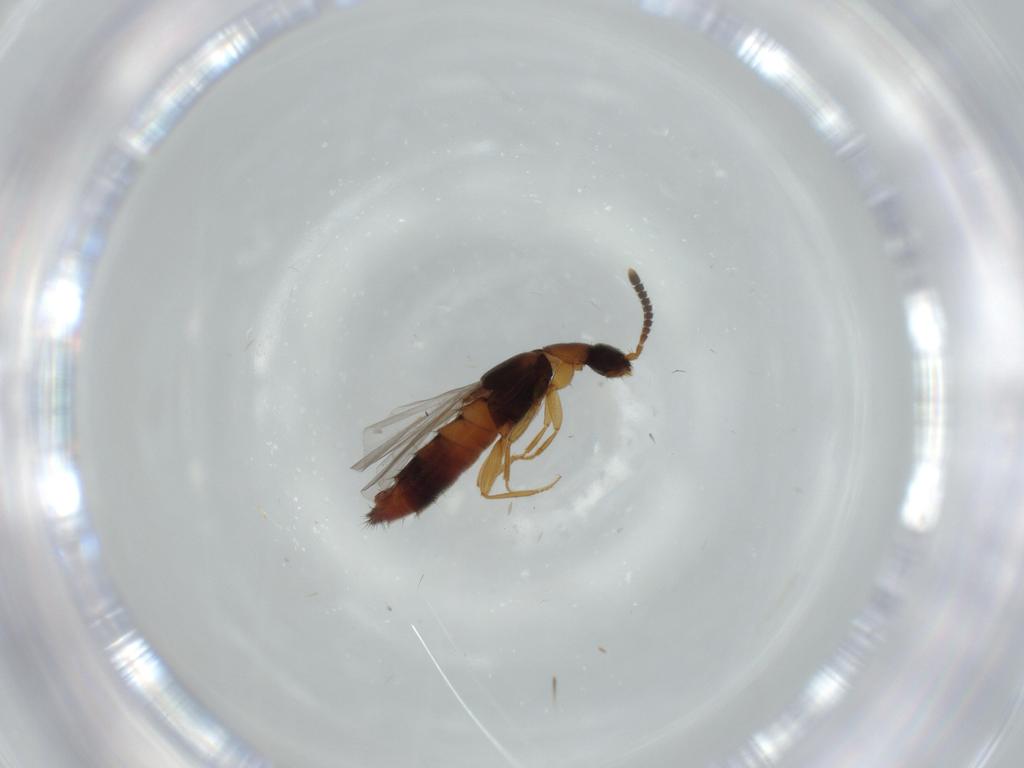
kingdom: Animalia
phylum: Arthropoda
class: Insecta
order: Coleoptera
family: Staphylinidae
